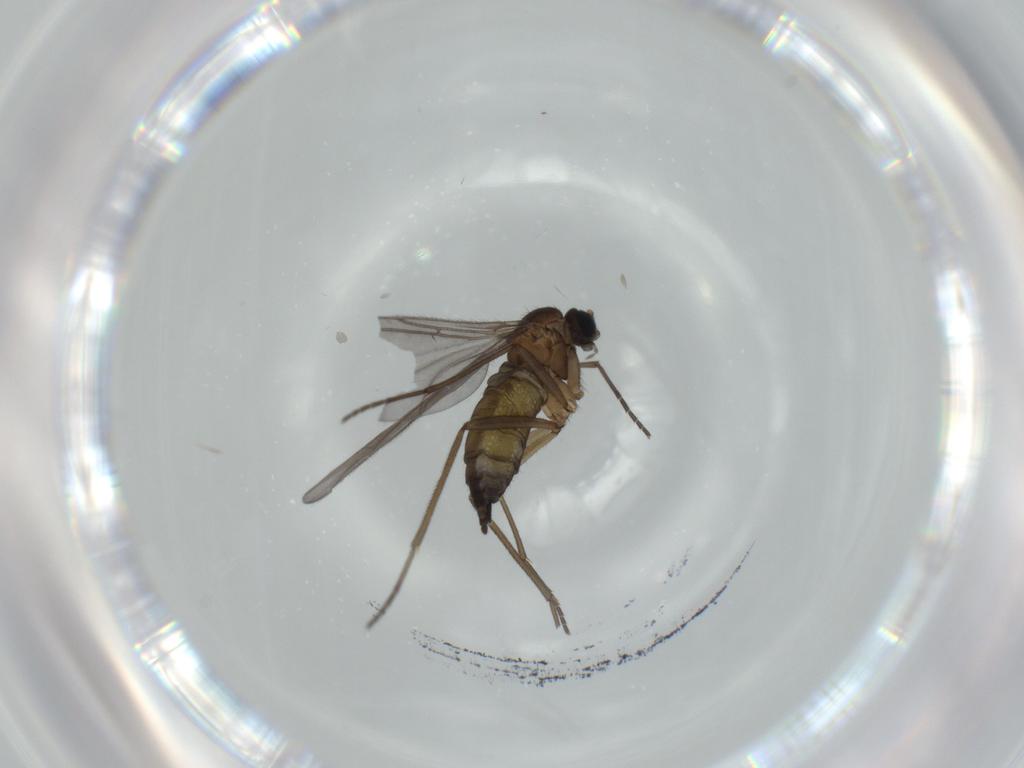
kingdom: Animalia
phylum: Arthropoda
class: Insecta
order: Diptera
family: Sciaridae
